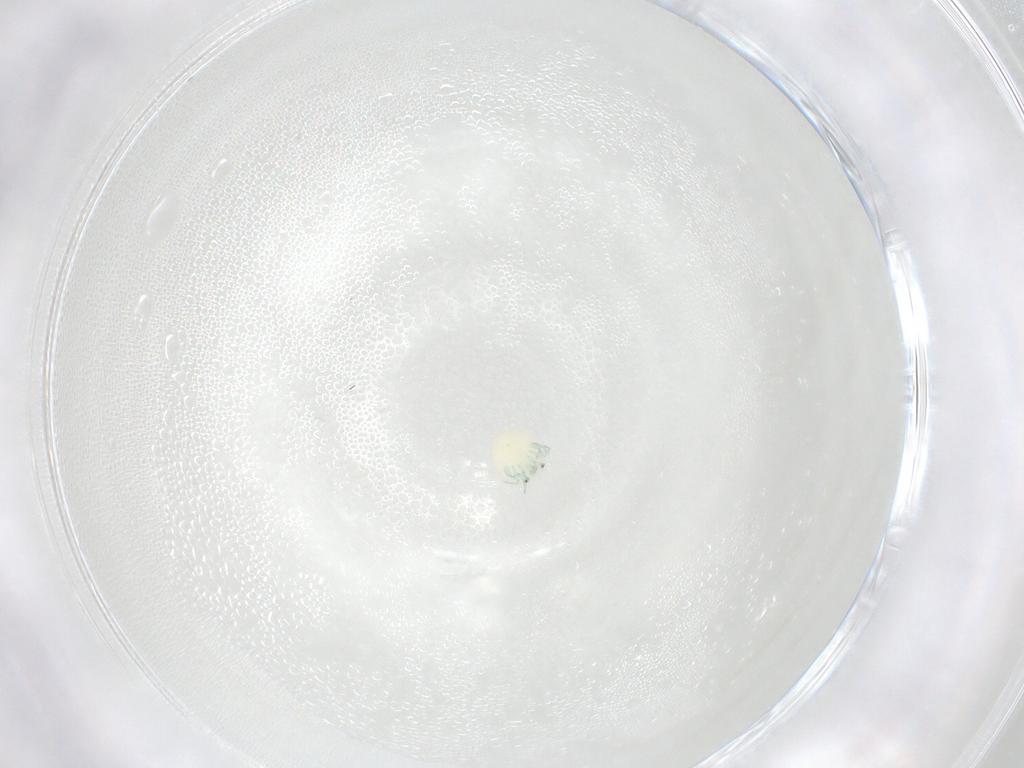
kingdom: Animalia
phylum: Arthropoda
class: Arachnida
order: Trombidiformes
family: Arrenuridae
